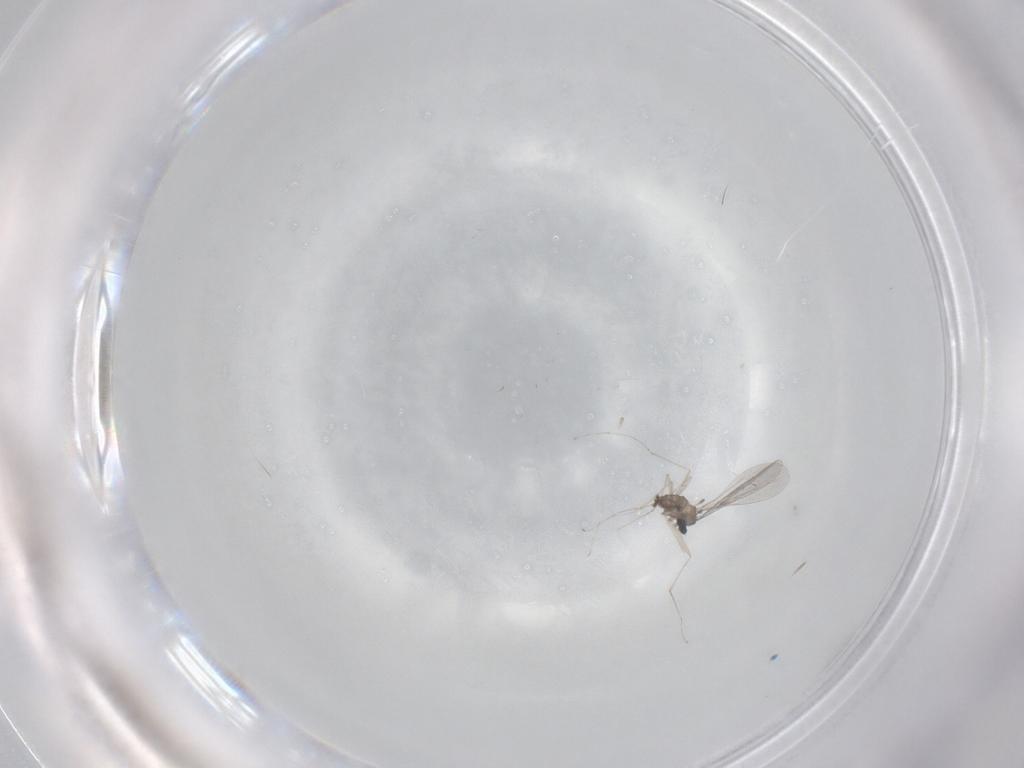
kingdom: Animalia
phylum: Arthropoda
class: Insecta
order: Diptera
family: Cecidomyiidae
